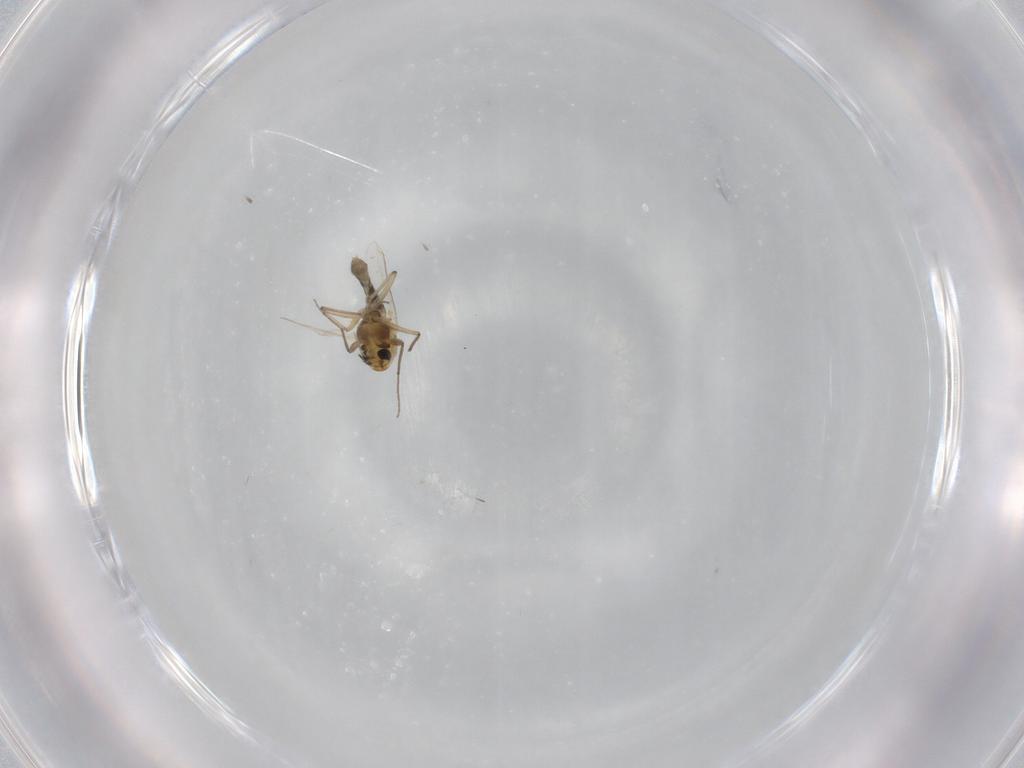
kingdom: Animalia
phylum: Arthropoda
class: Insecta
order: Diptera
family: Chironomidae
